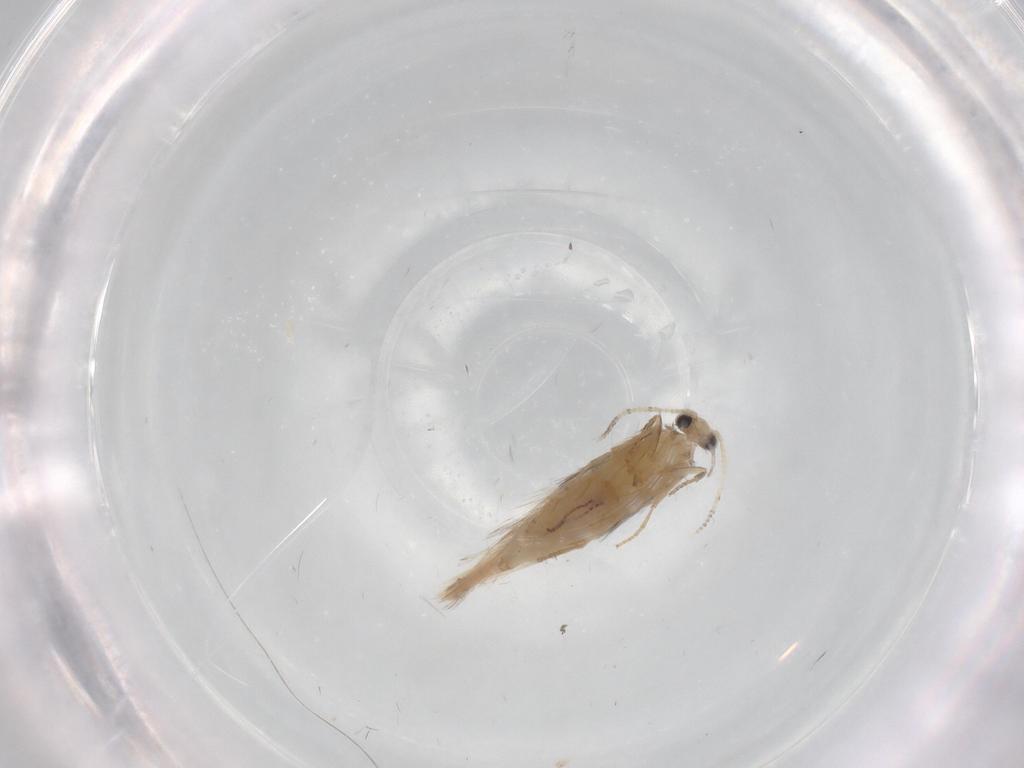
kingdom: Animalia
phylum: Arthropoda
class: Insecta
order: Trichoptera
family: Hydroptilidae
